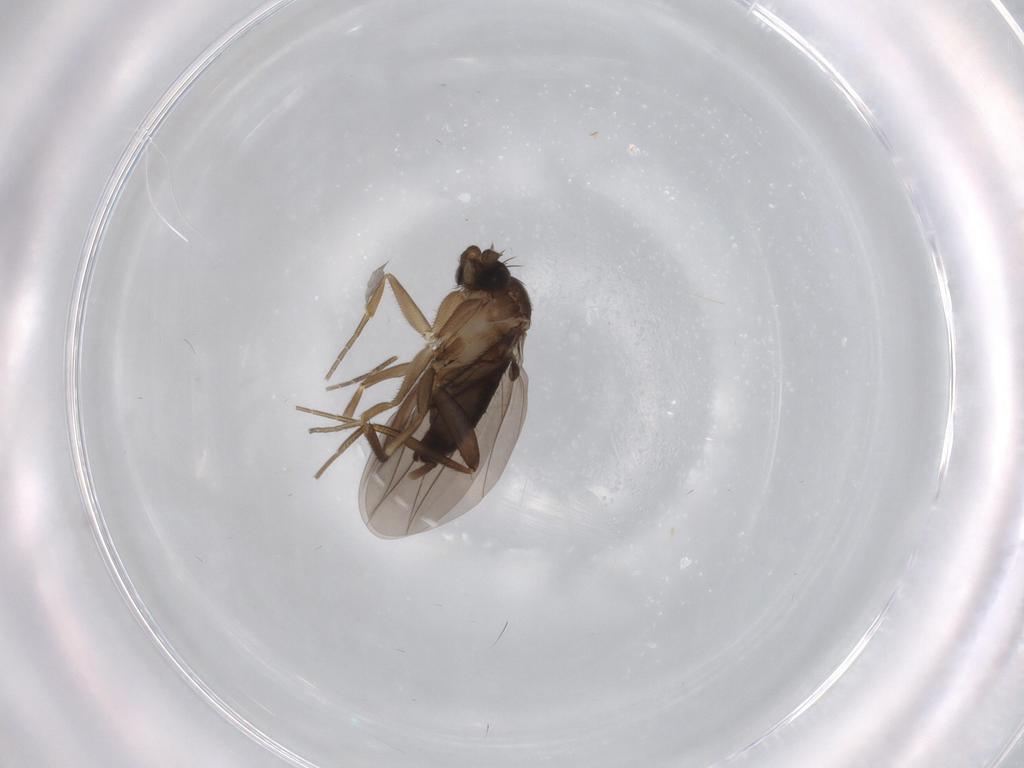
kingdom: Animalia
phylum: Arthropoda
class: Insecta
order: Diptera
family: Phoridae
